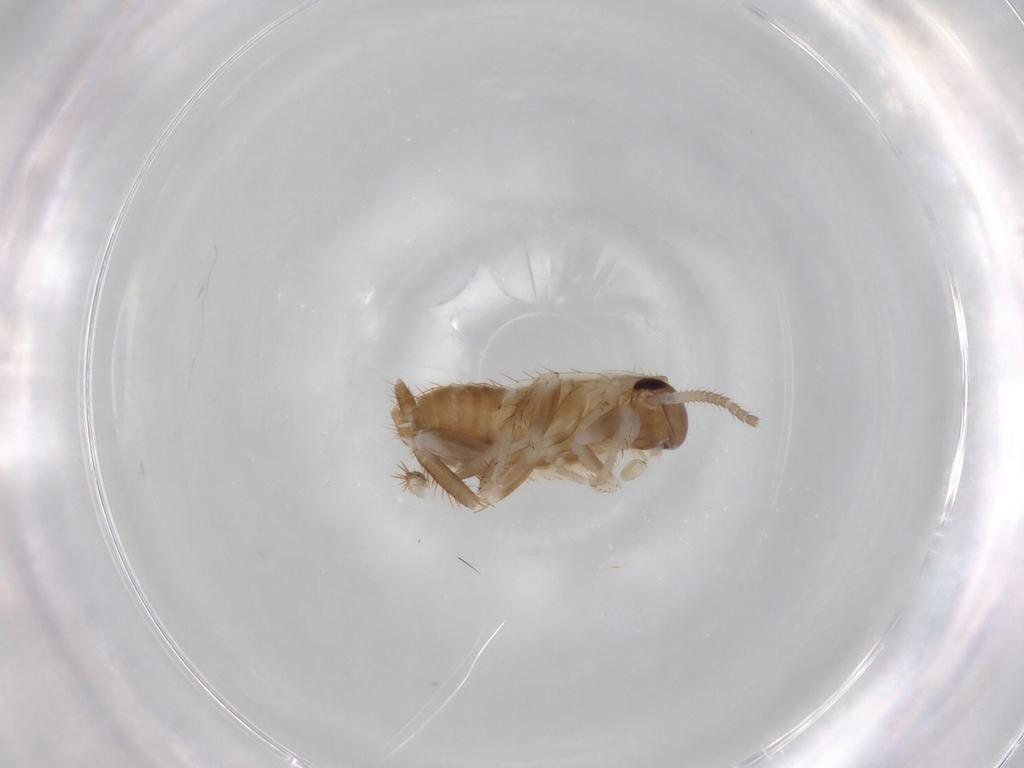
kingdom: Animalia
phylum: Arthropoda
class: Insecta
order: Blattodea
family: Ectobiidae
